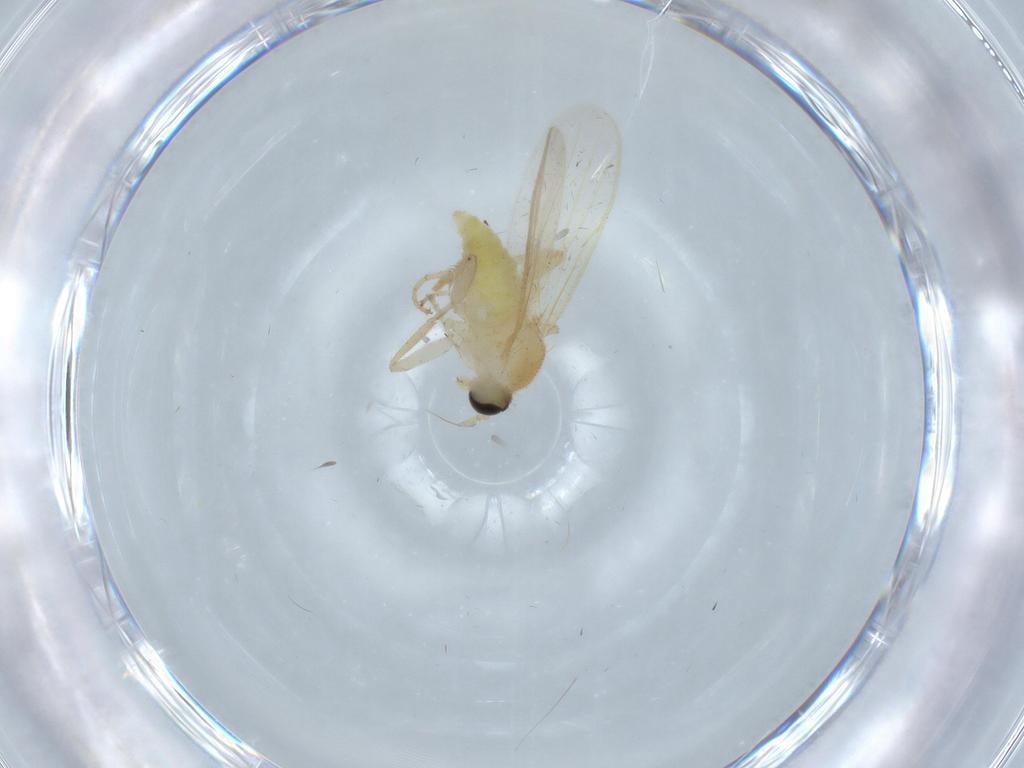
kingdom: Animalia
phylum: Arthropoda
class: Insecta
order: Diptera
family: Hybotidae
